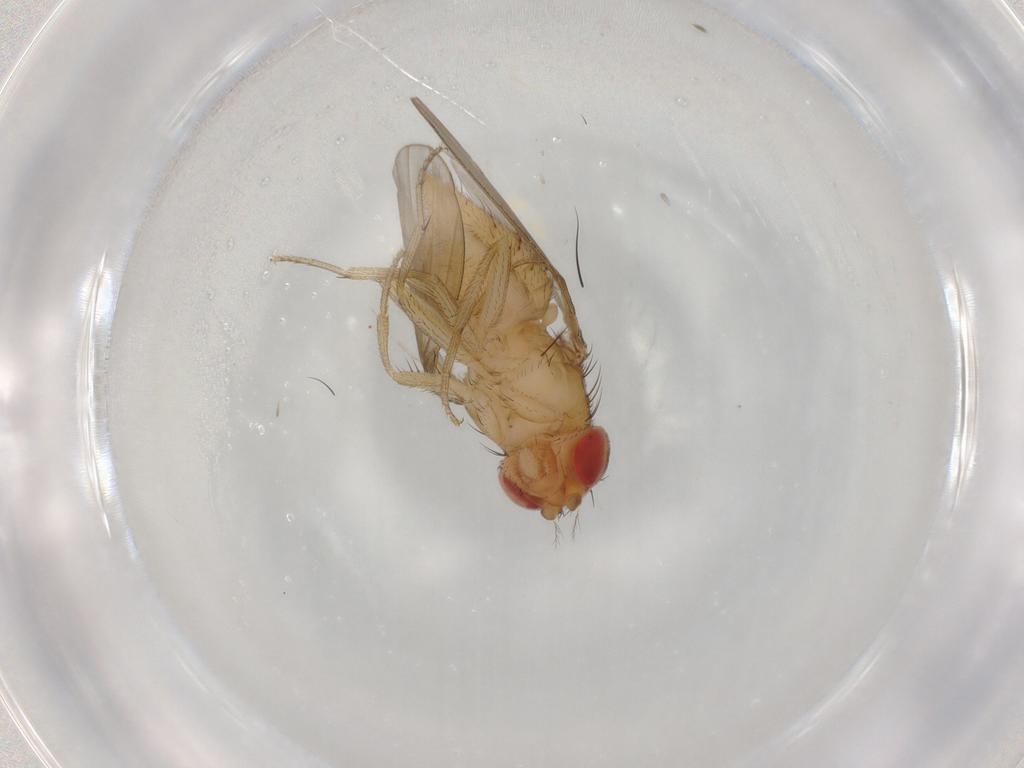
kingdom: Animalia
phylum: Arthropoda
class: Insecta
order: Diptera
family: Drosophilidae
